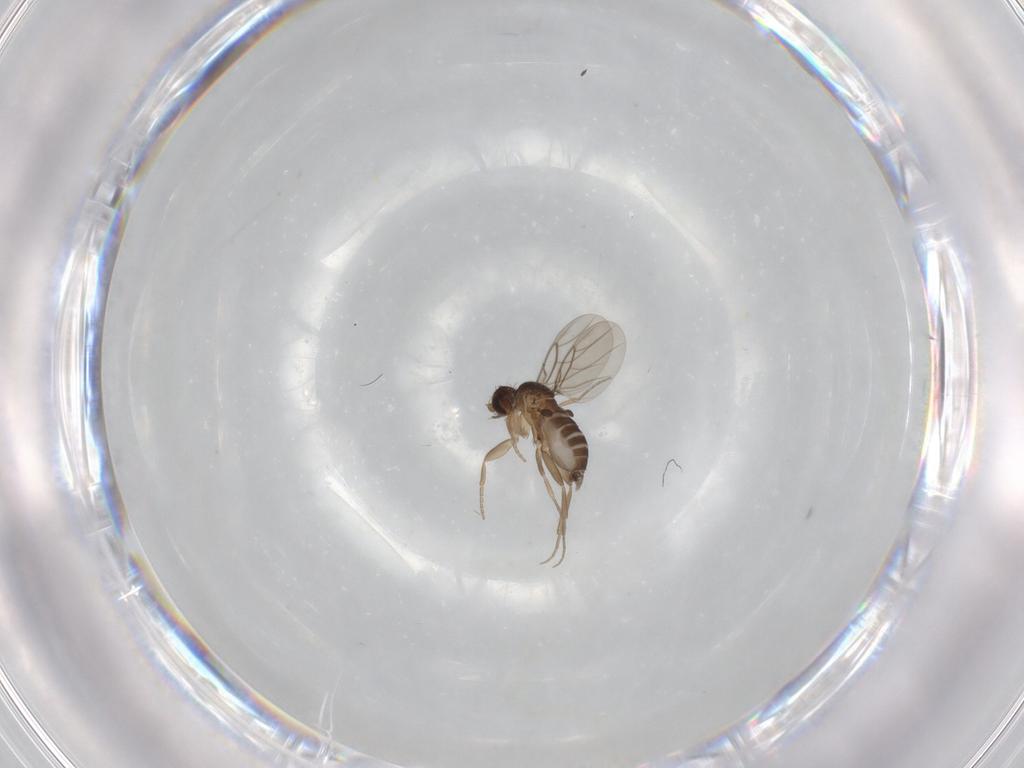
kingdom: Animalia
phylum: Arthropoda
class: Insecta
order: Diptera
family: Phoridae
